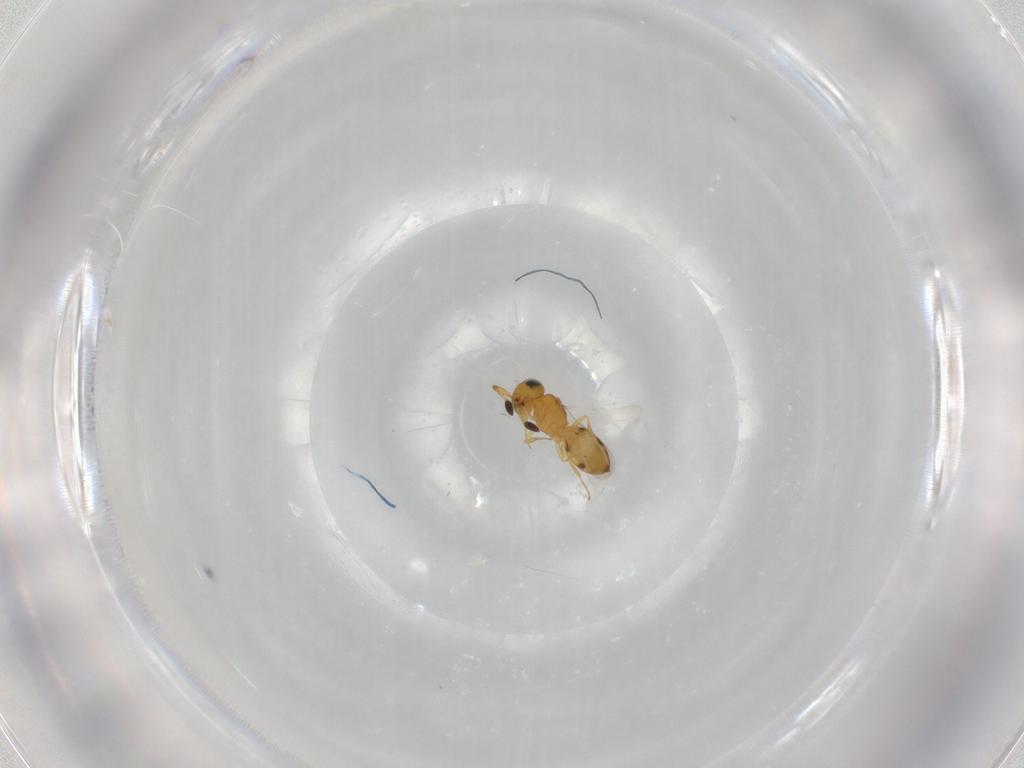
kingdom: Animalia
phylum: Arthropoda
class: Insecta
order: Hymenoptera
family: Scelionidae
